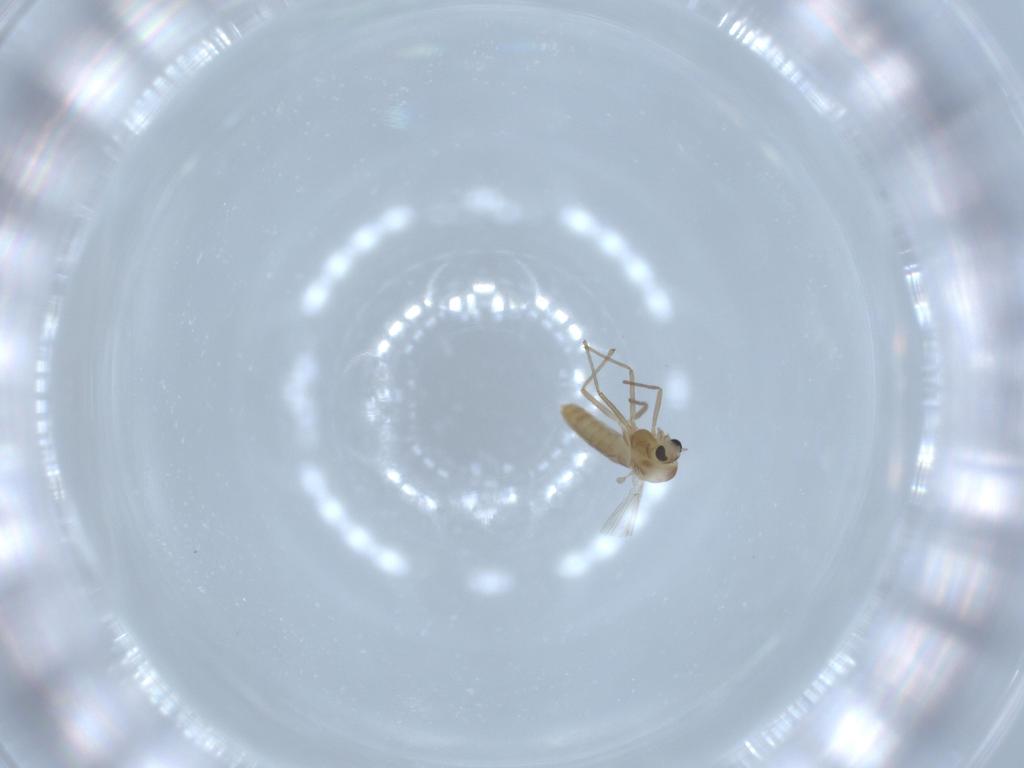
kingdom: Animalia
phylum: Arthropoda
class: Insecta
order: Diptera
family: Chironomidae
